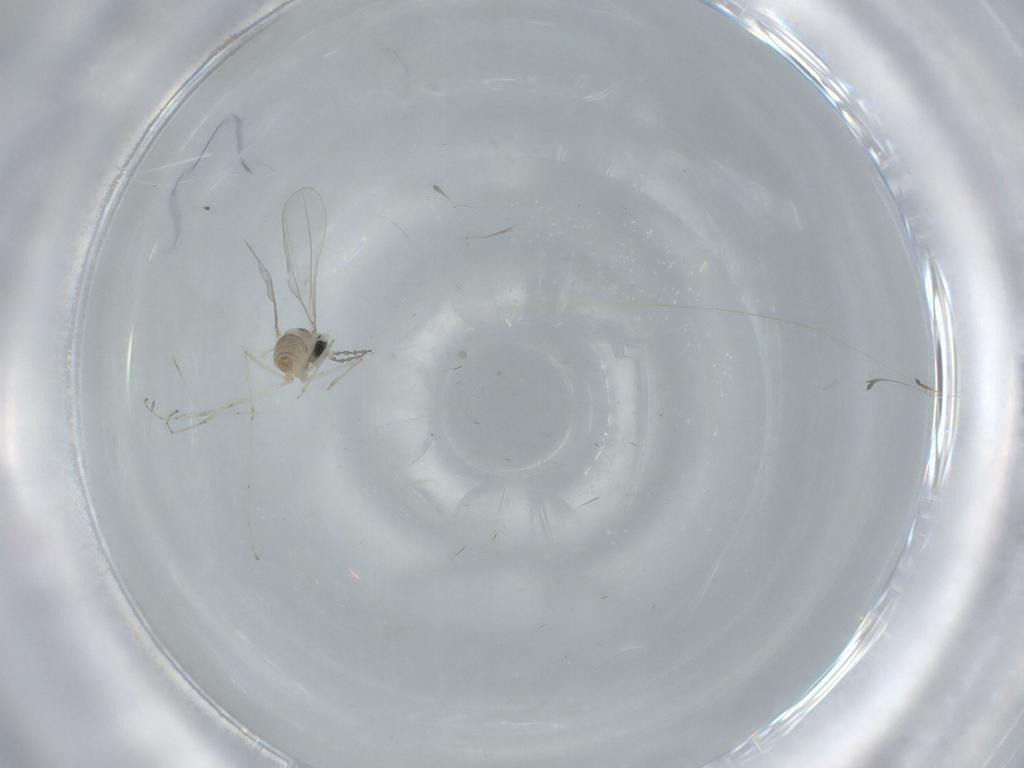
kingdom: Animalia
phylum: Arthropoda
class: Insecta
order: Diptera
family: Cecidomyiidae
